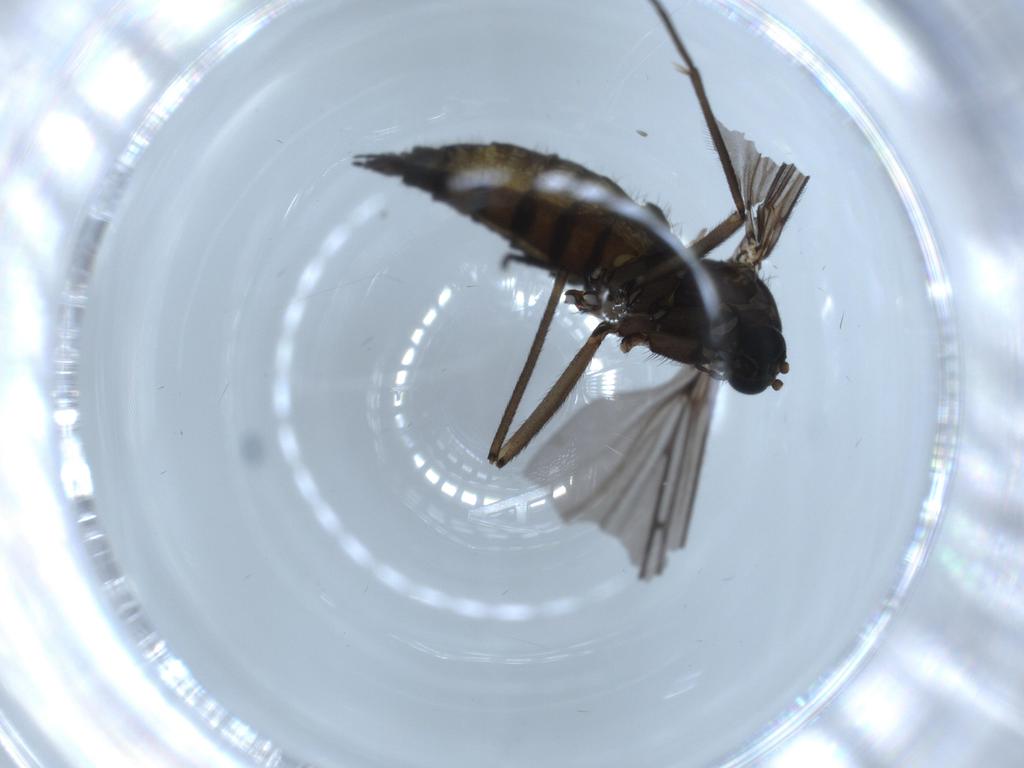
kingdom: Animalia
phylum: Arthropoda
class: Insecta
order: Diptera
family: Sciaridae
